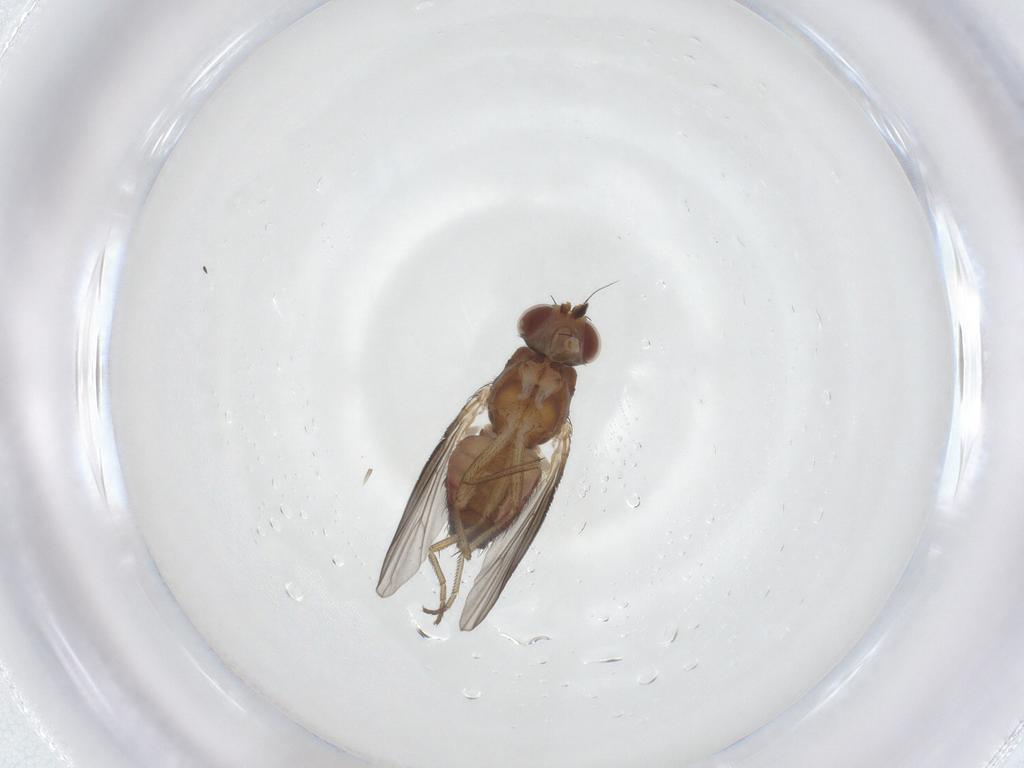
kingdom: Animalia
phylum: Arthropoda
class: Insecta
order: Diptera
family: Heleomyzidae
